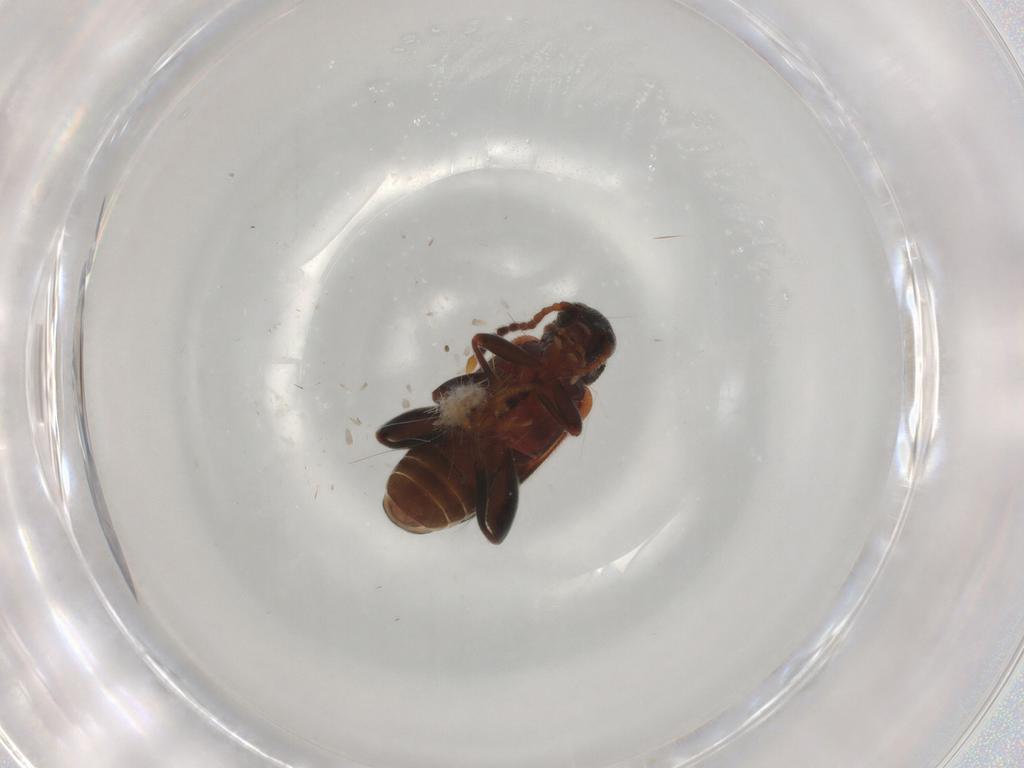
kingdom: Animalia
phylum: Arthropoda
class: Insecta
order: Coleoptera
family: Aderidae
